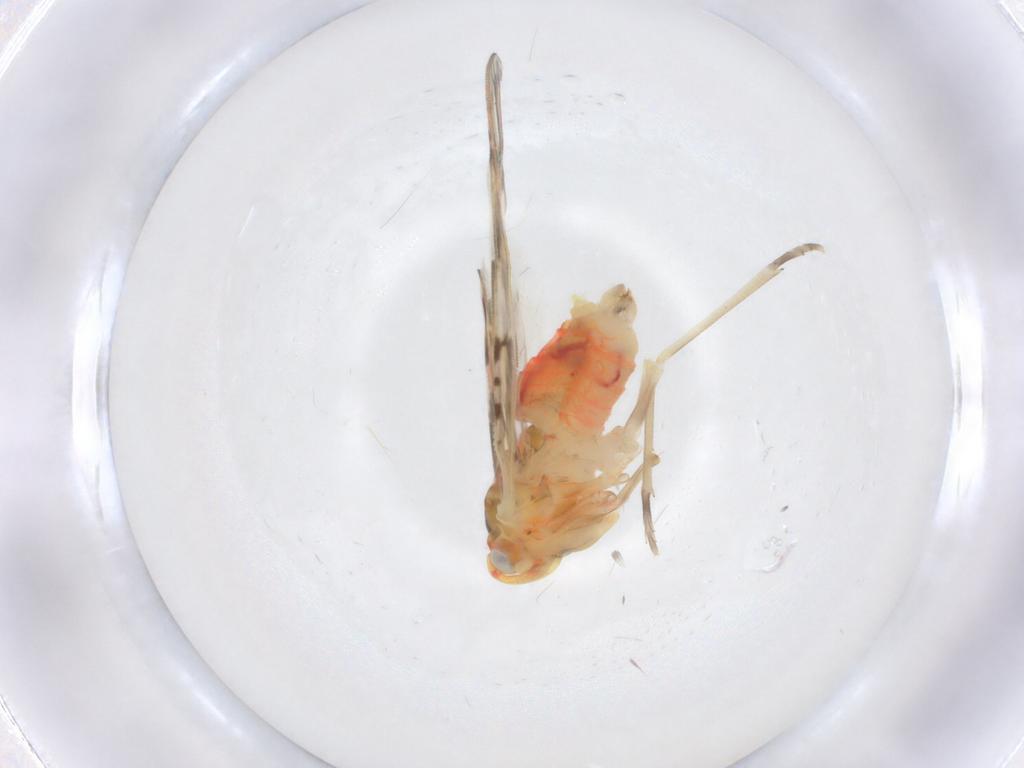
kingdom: Animalia
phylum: Arthropoda
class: Insecta
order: Hemiptera
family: Derbidae
